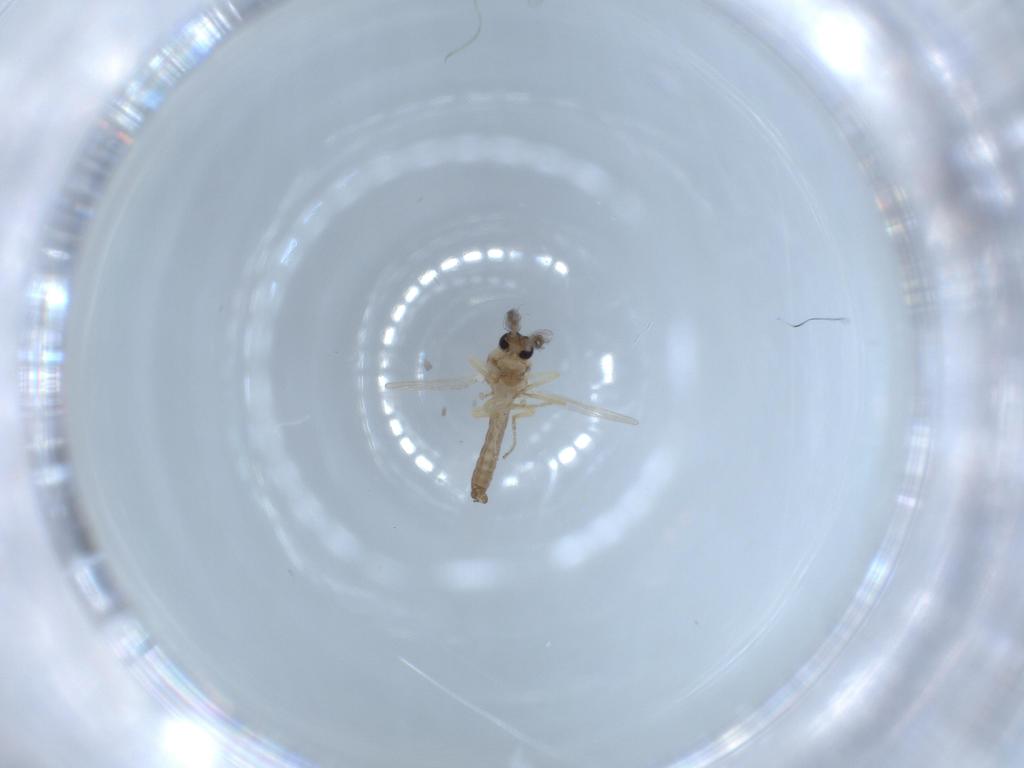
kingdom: Animalia
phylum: Arthropoda
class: Insecta
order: Diptera
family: Ceratopogonidae
